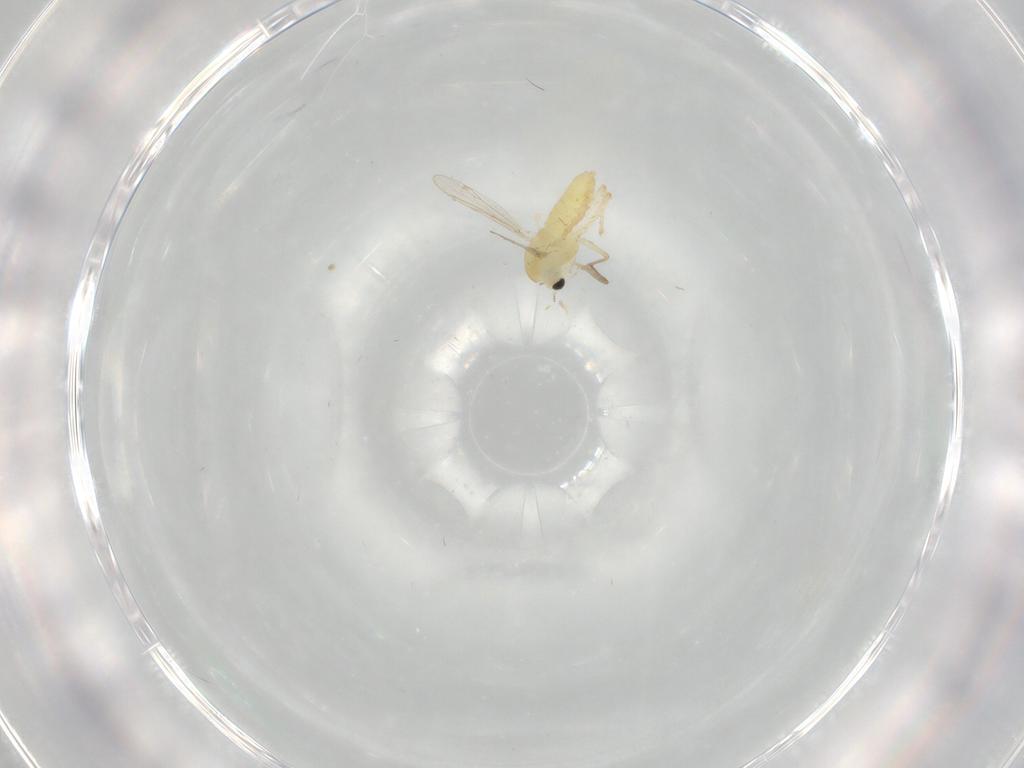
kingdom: Animalia
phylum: Arthropoda
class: Insecta
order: Diptera
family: Chironomidae
